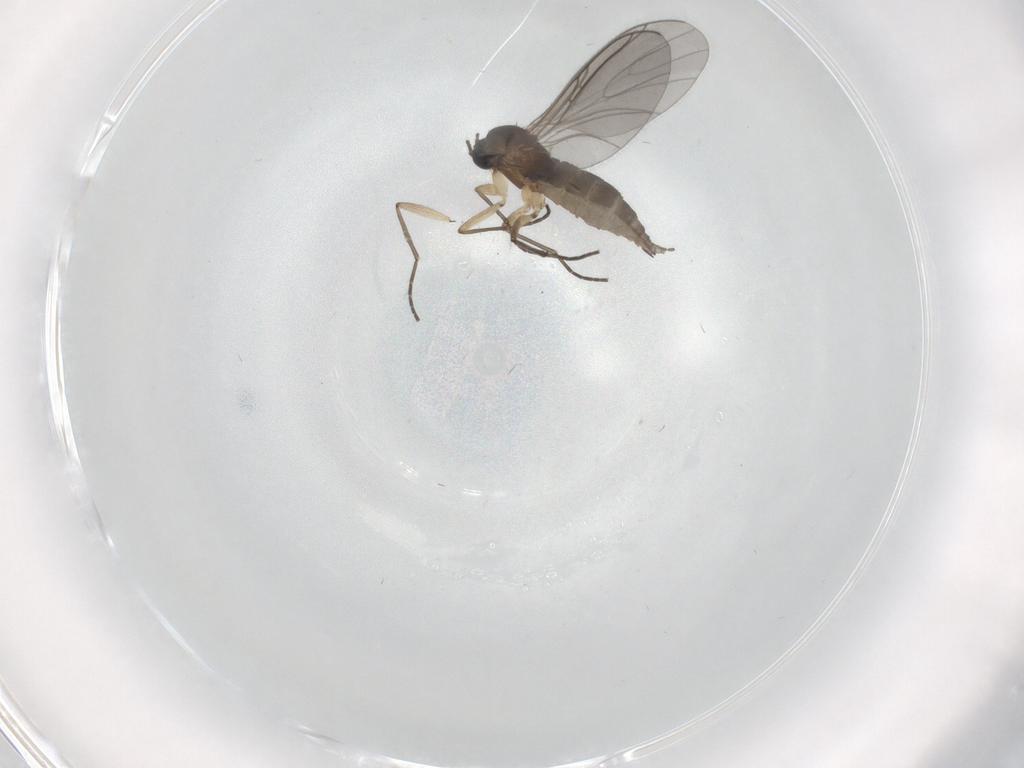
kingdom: Animalia
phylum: Arthropoda
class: Insecta
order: Diptera
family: Sciaridae
